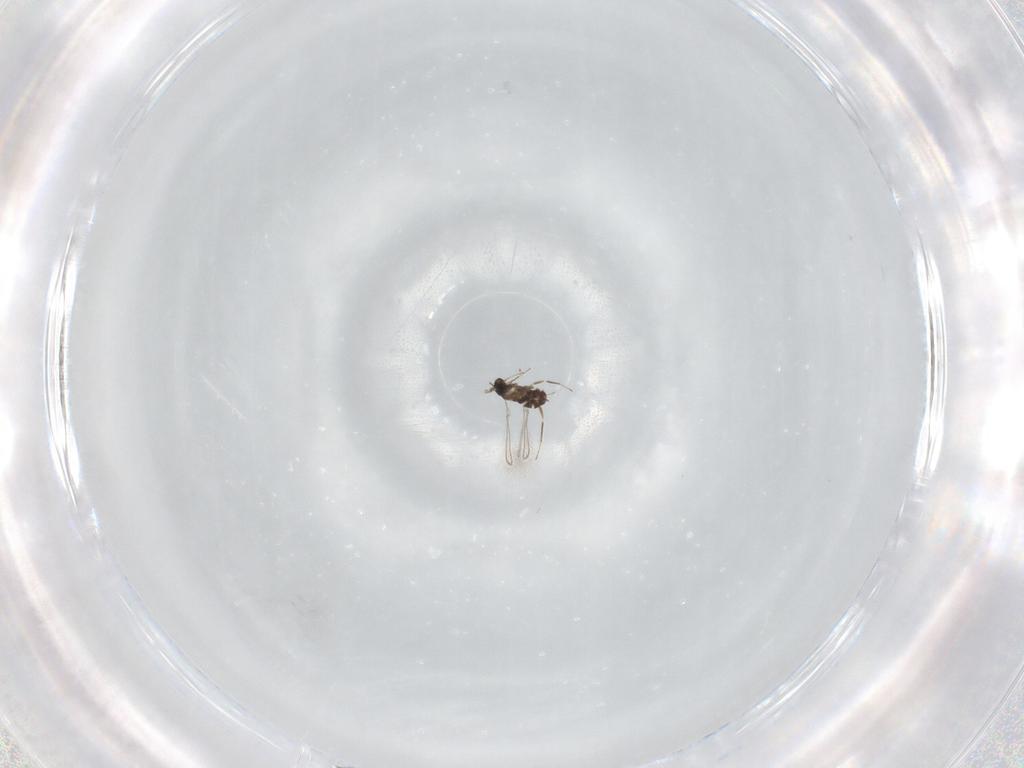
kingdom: Animalia
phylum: Arthropoda
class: Insecta
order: Hymenoptera
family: Mymaridae
